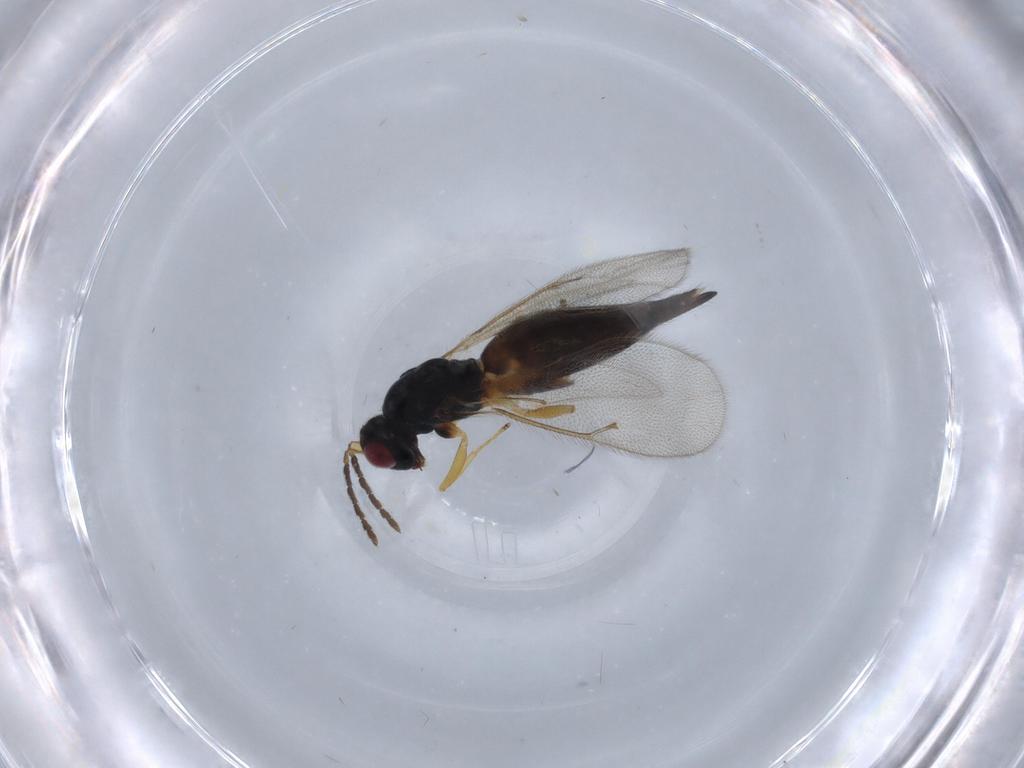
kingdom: Animalia
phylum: Arthropoda
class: Insecta
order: Hymenoptera
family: Eulophidae
